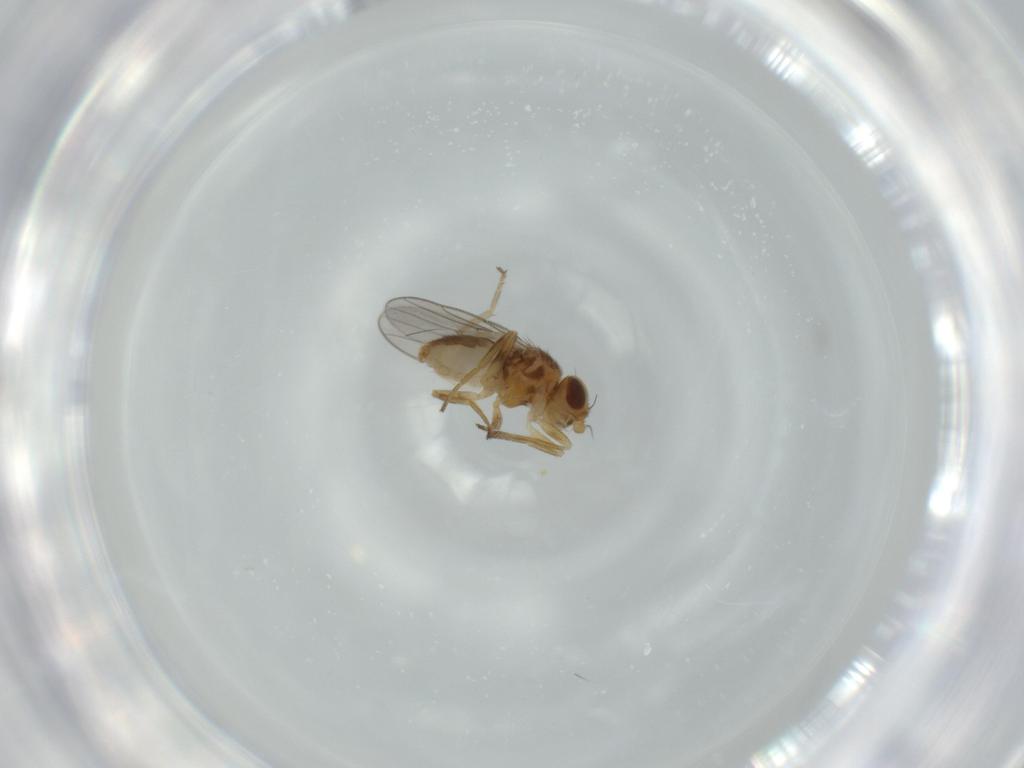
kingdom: Animalia
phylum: Arthropoda
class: Insecta
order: Diptera
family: Chloropidae
